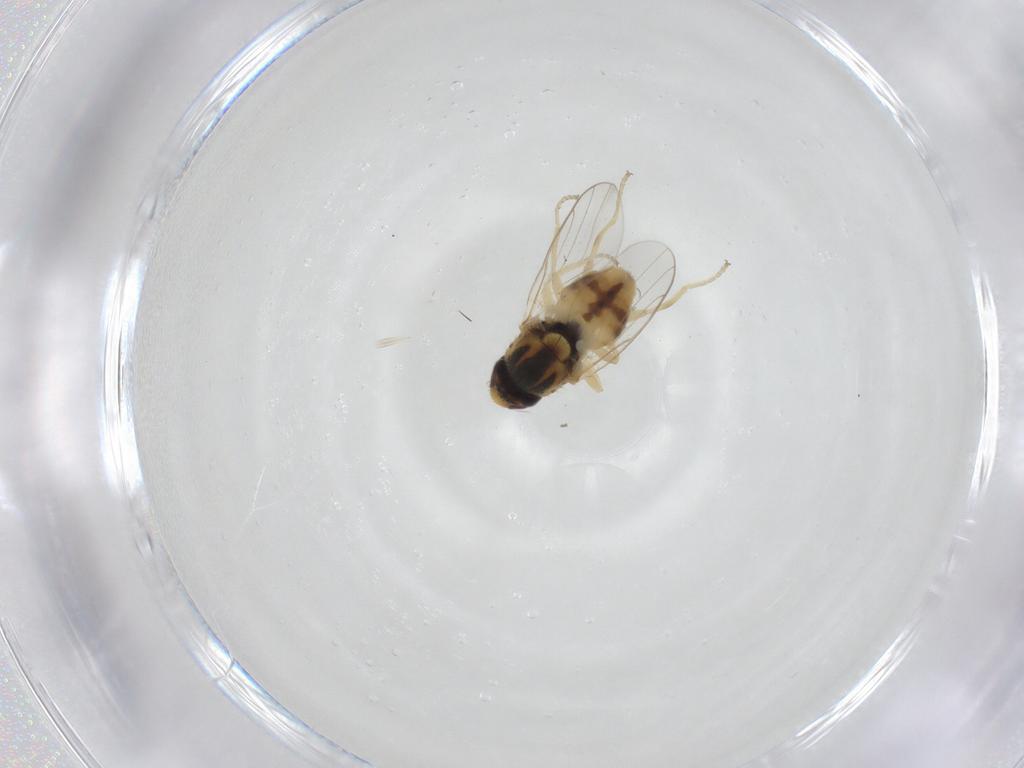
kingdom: Animalia
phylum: Arthropoda
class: Insecta
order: Diptera
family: Chloropidae
